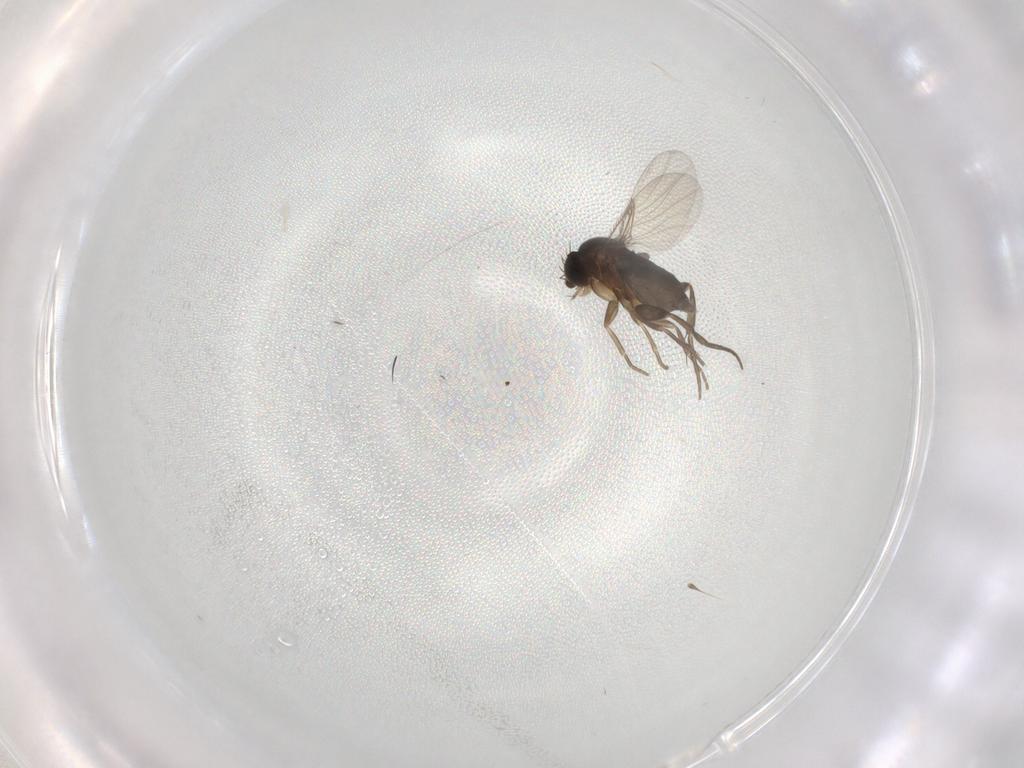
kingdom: Animalia
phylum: Arthropoda
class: Insecta
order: Diptera
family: Phoridae
